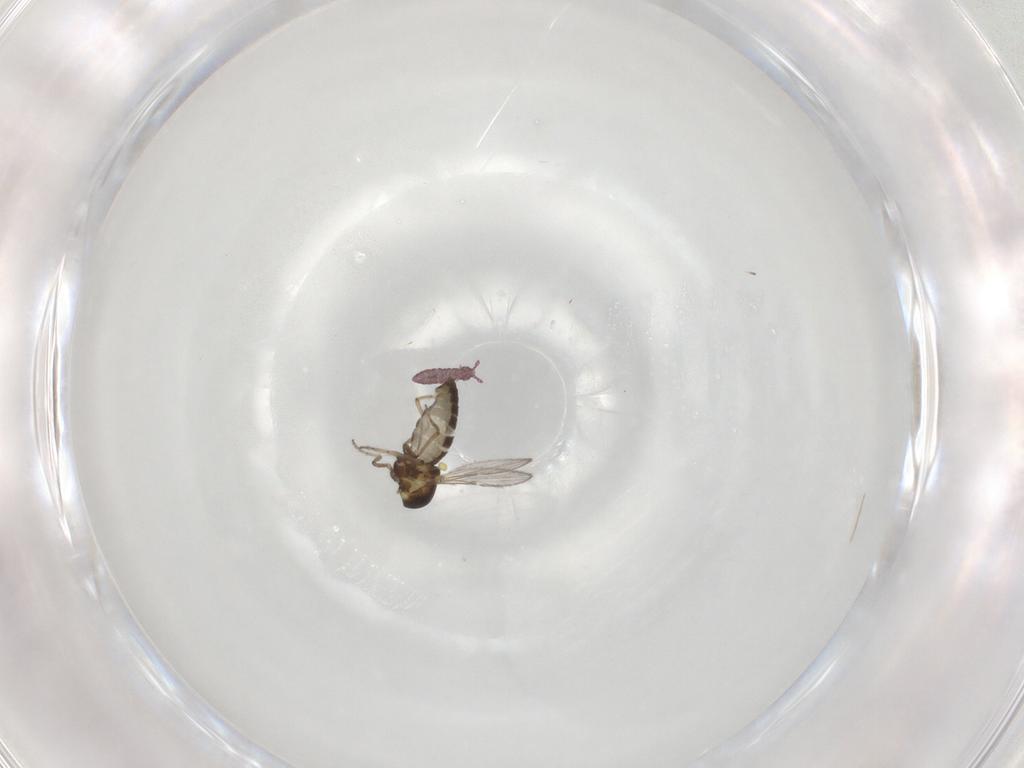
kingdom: Animalia
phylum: Arthropoda
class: Insecta
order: Diptera
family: Ceratopogonidae
